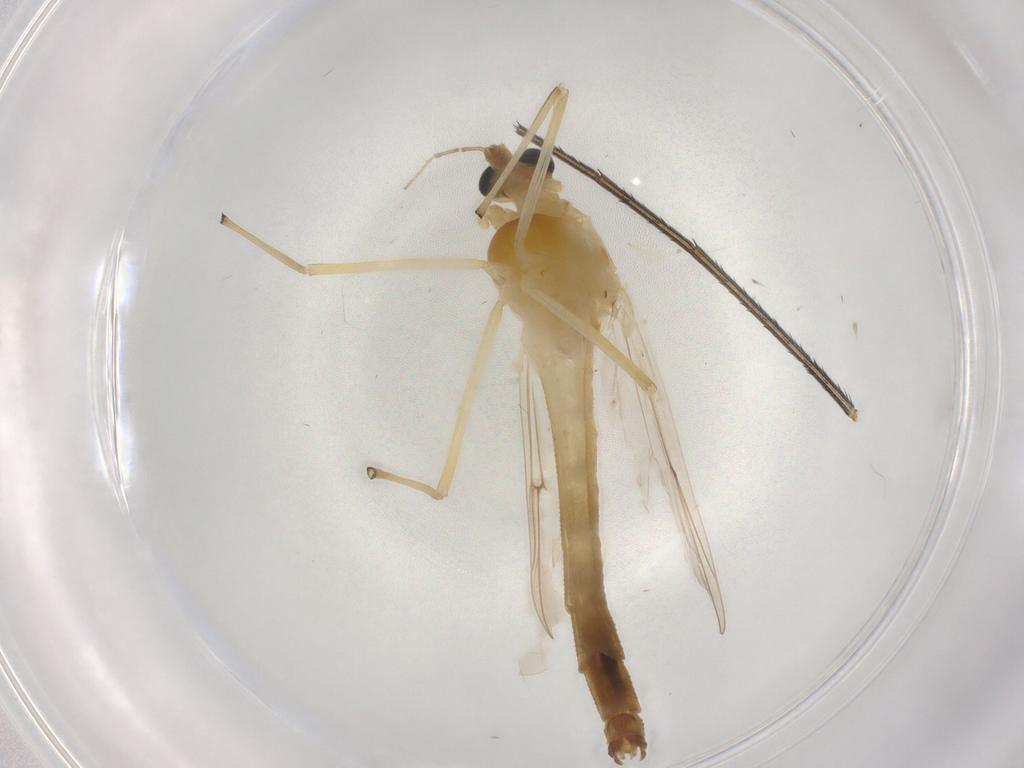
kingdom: Animalia
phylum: Arthropoda
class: Insecta
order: Diptera
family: Chironomidae
